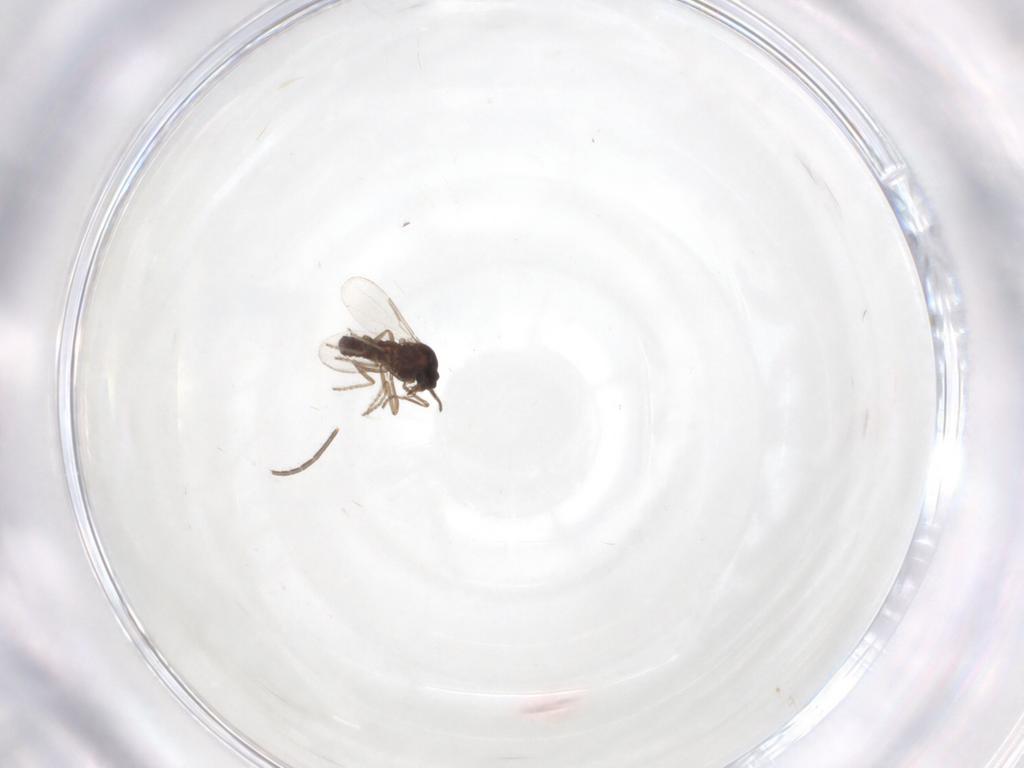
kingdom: Animalia
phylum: Arthropoda
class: Insecta
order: Diptera
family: Ceratopogonidae
